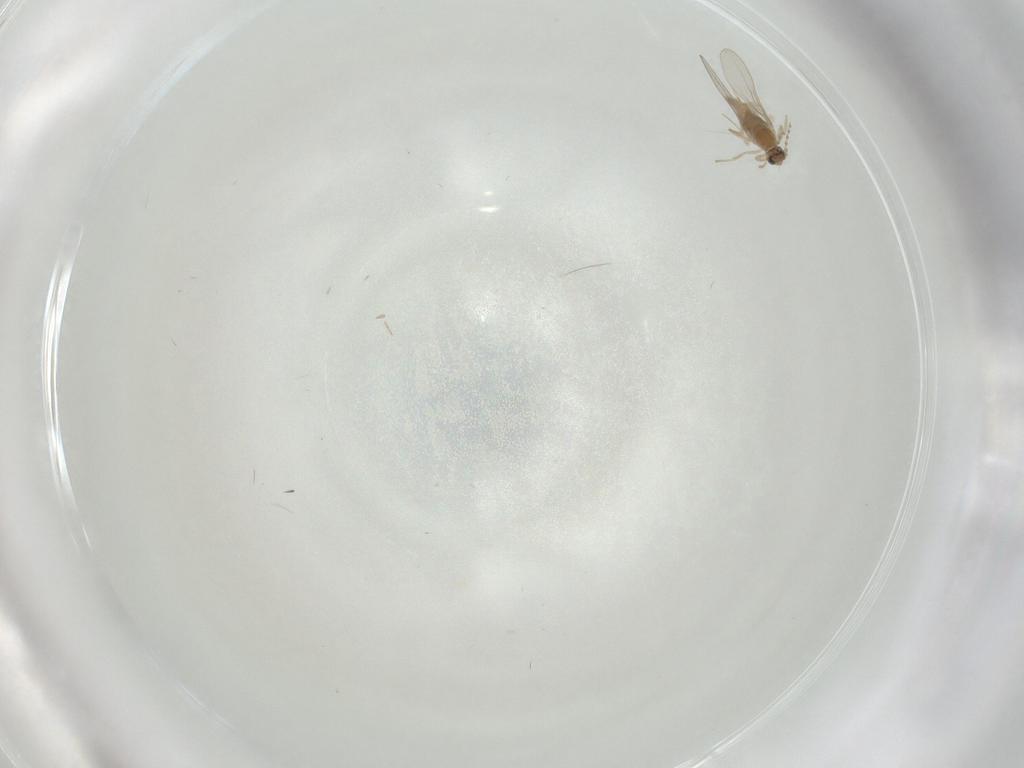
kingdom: Animalia
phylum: Arthropoda
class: Insecta
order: Diptera
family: Cecidomyiidae
